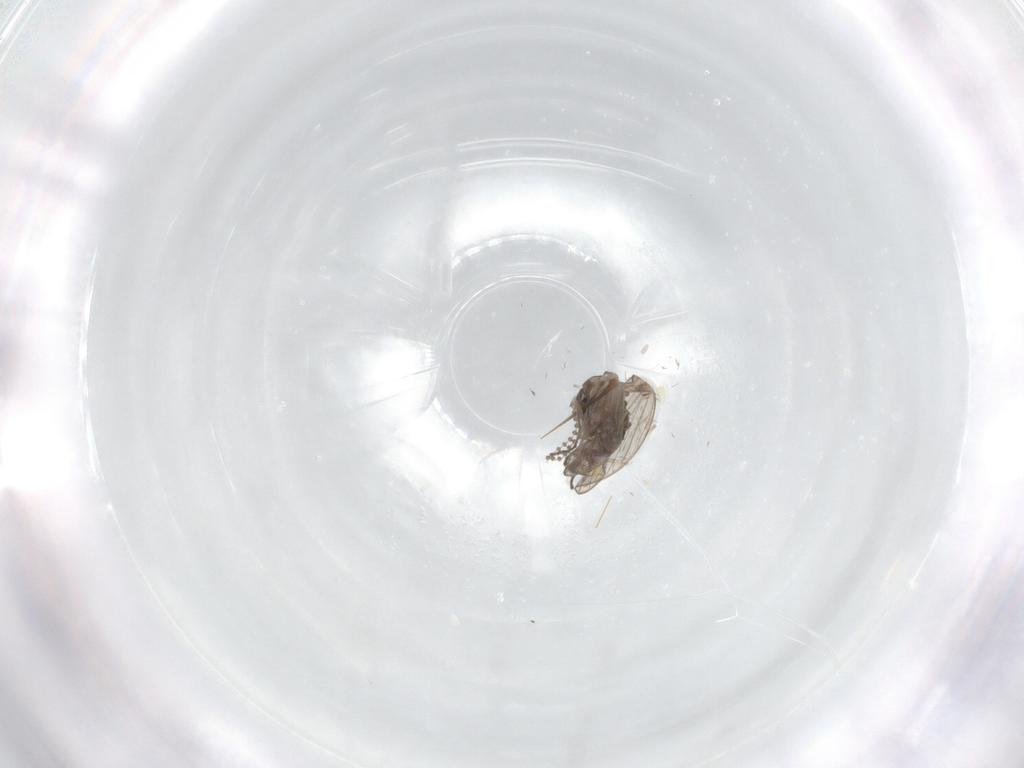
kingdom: Animalia
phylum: Arthropoda
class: Insecta
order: Diptera
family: Psychodidae
